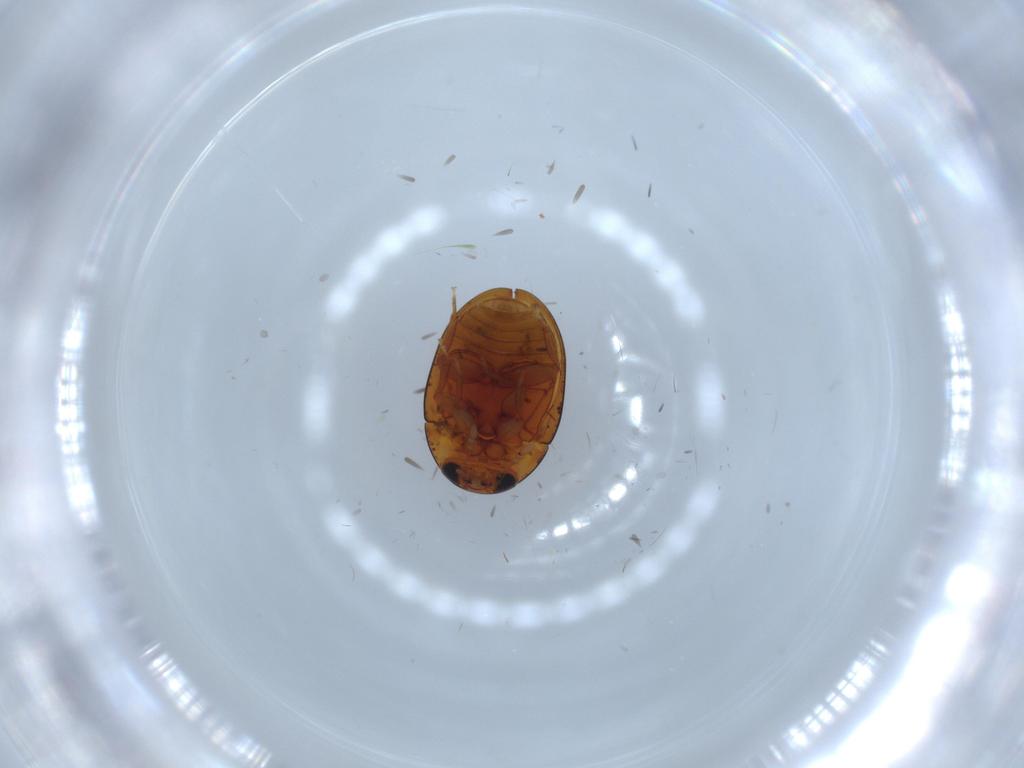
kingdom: Animalia
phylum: Arthropoda
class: Insecta
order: Coleoptera
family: Chrysomelidae
